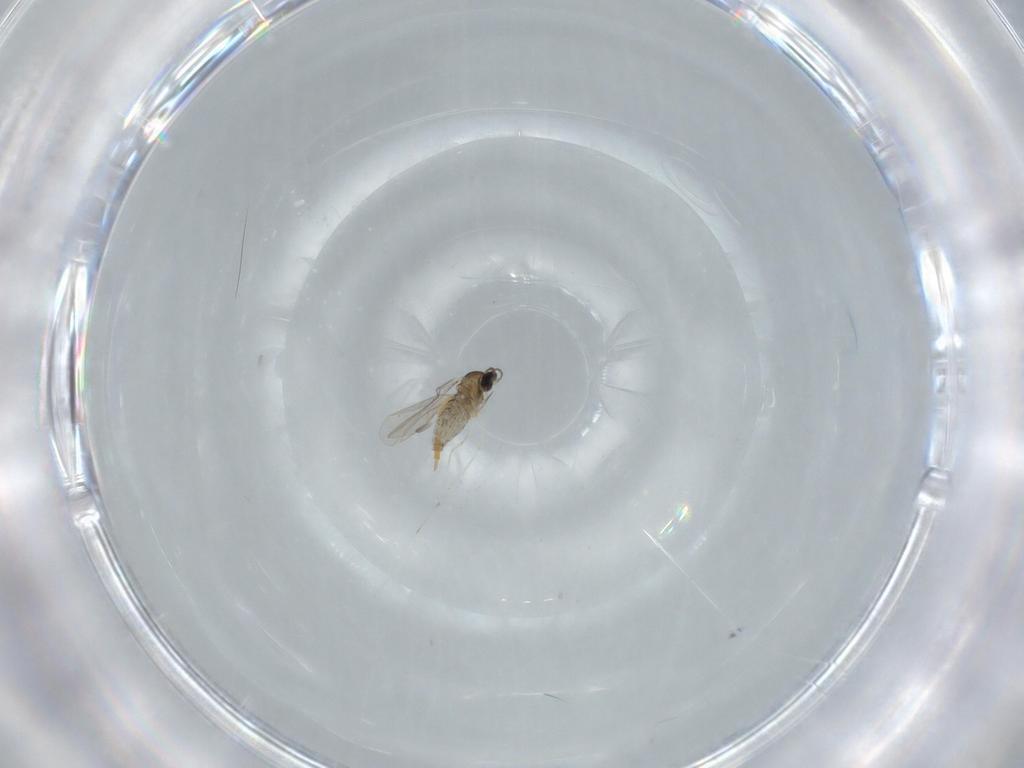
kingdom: Animalia
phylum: Arthropoda
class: Insecta
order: Diptera
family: Cecidomyiidae
